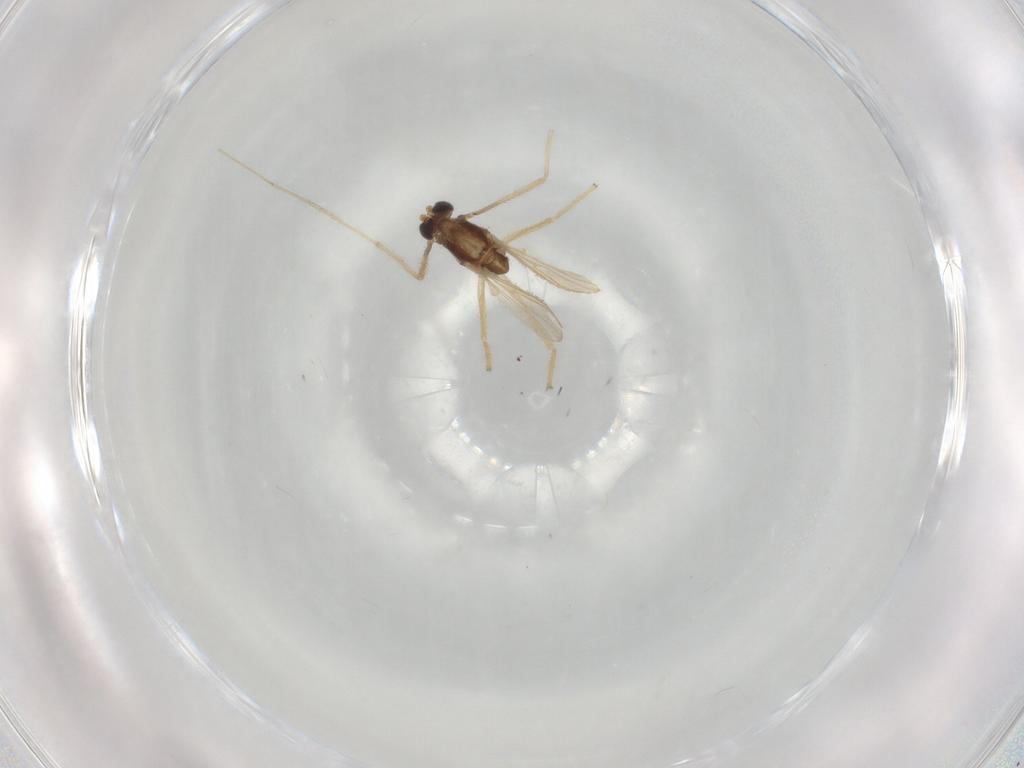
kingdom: Animalia
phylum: Arthropoda
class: Insecta
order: Diptera
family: Chironomidae
